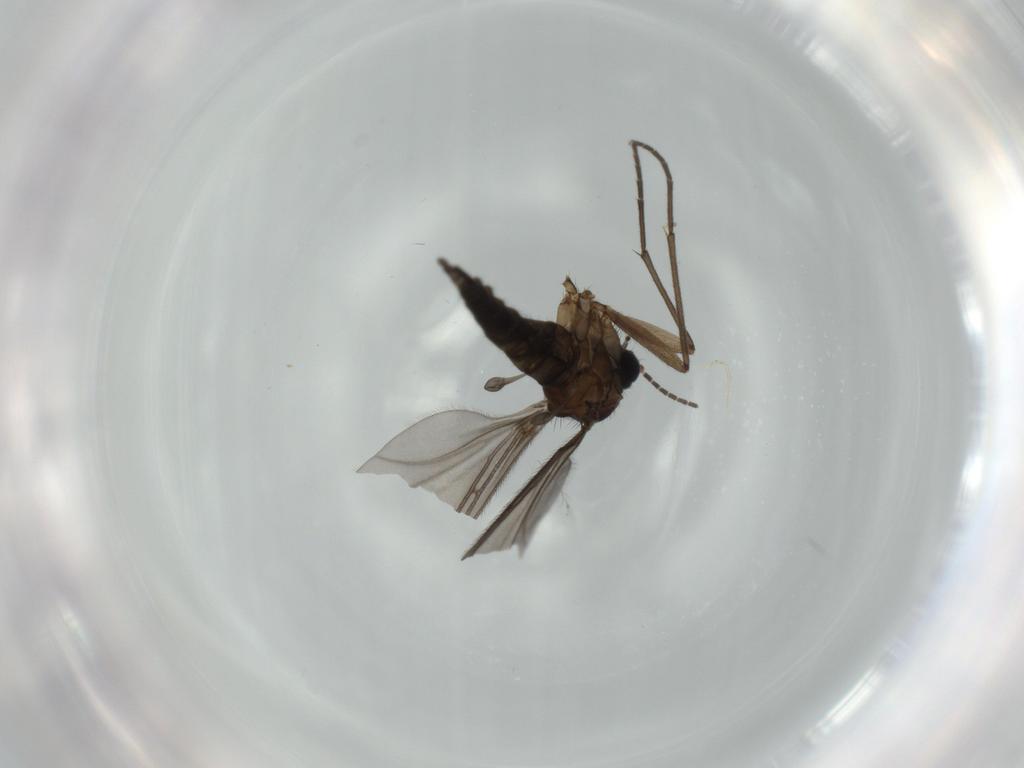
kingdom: Animalia
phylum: Arthropoda
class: Insecta
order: Diptera
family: Sciaridae
